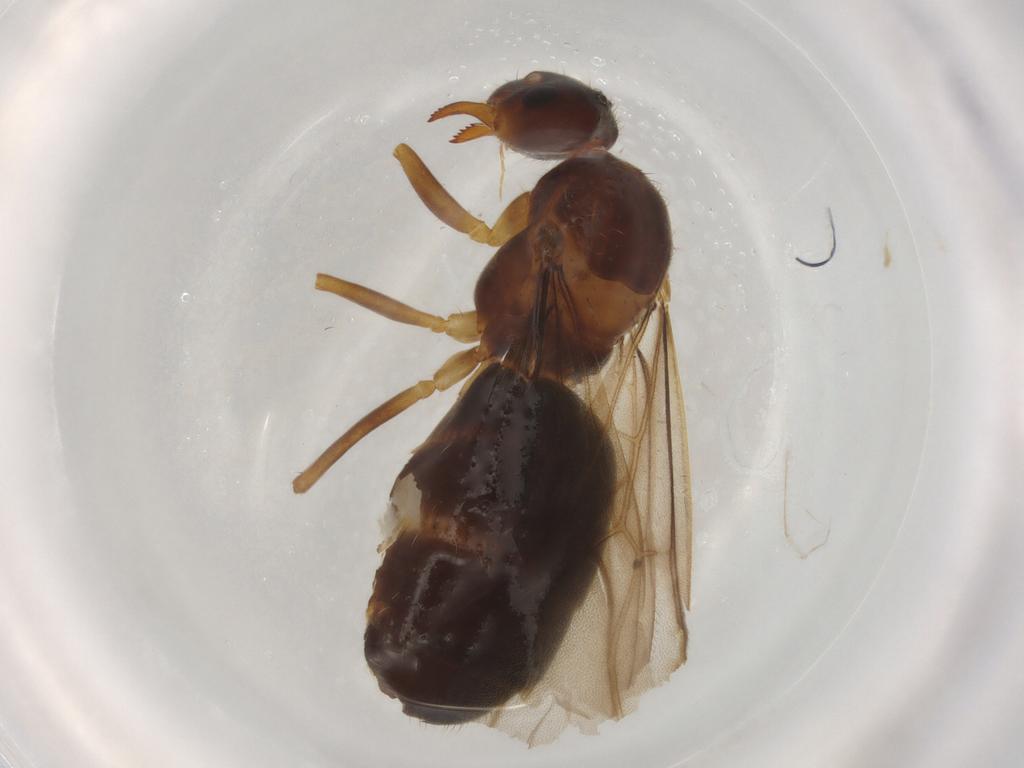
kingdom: Animalia
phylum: Arthropoda
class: Insecta
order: Hymenoptera
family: Formicidae
